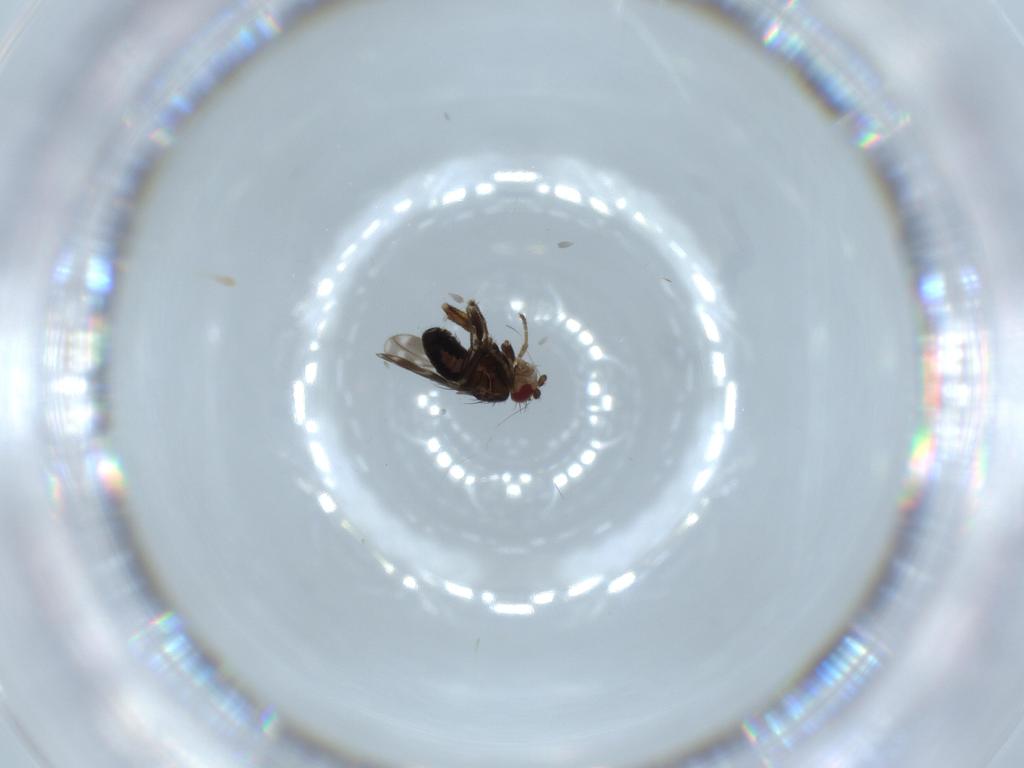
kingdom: Animalia
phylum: Arthropoda
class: Insecta
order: Diptera
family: Sphaeroceridae
